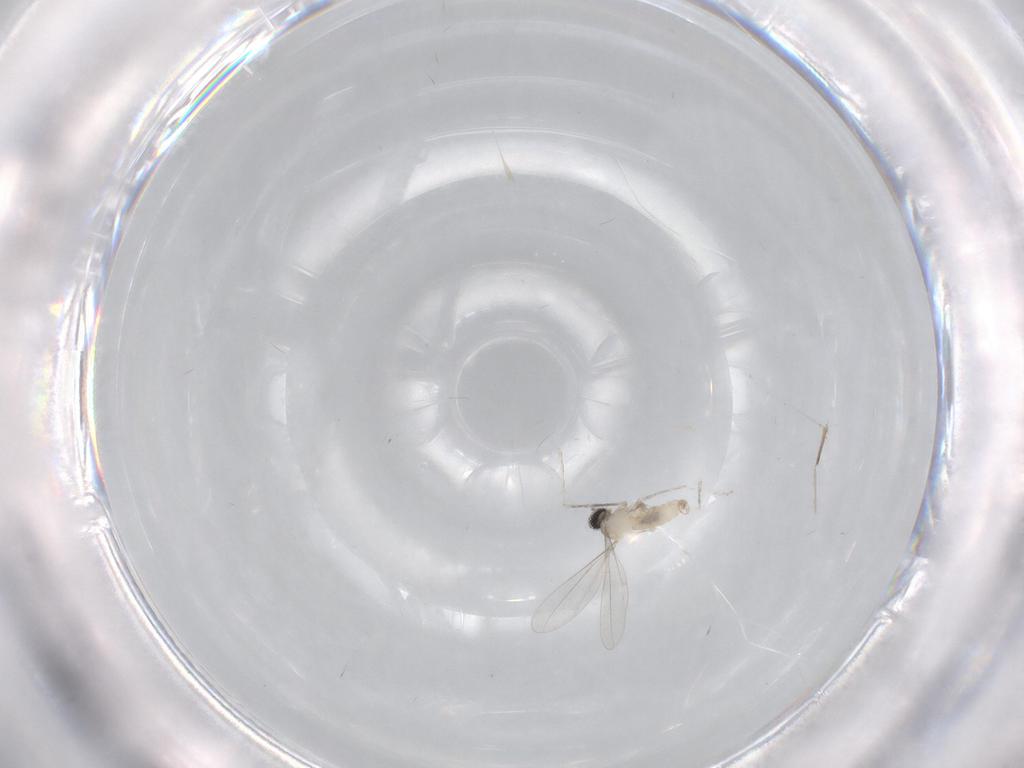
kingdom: Animalia
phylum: Arthropoda
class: Insecta
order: Diptera
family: Cecidomyiidae
